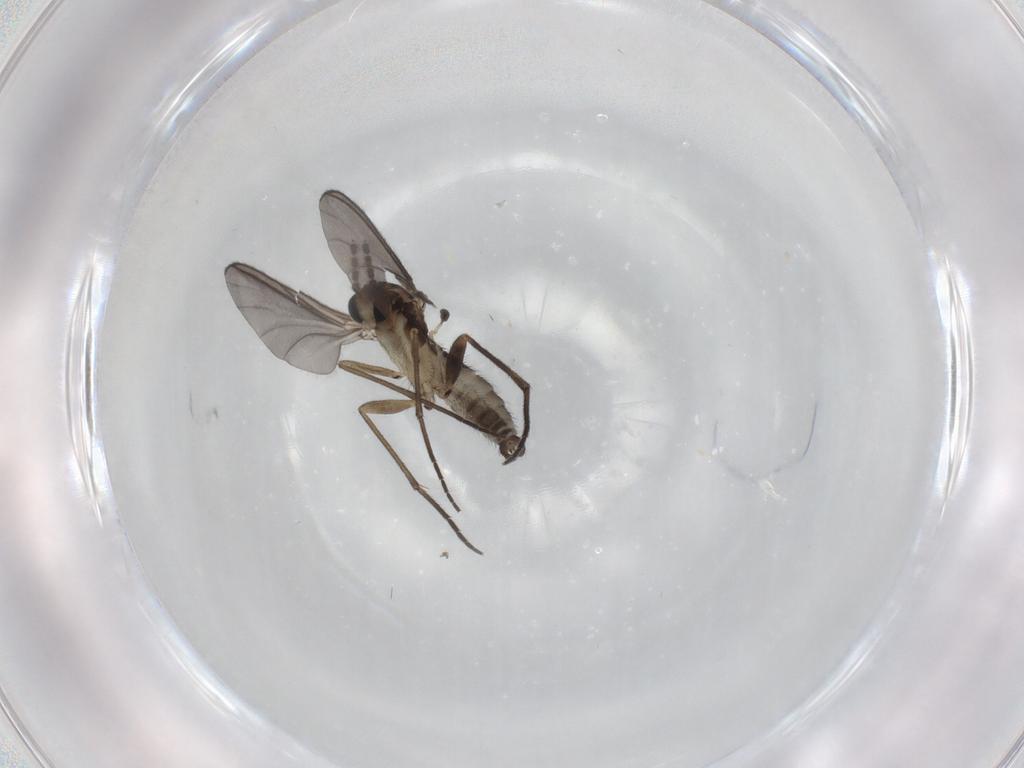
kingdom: Animalia
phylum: Arthropoda
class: Insecta
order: Diptera
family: Sciaridae
